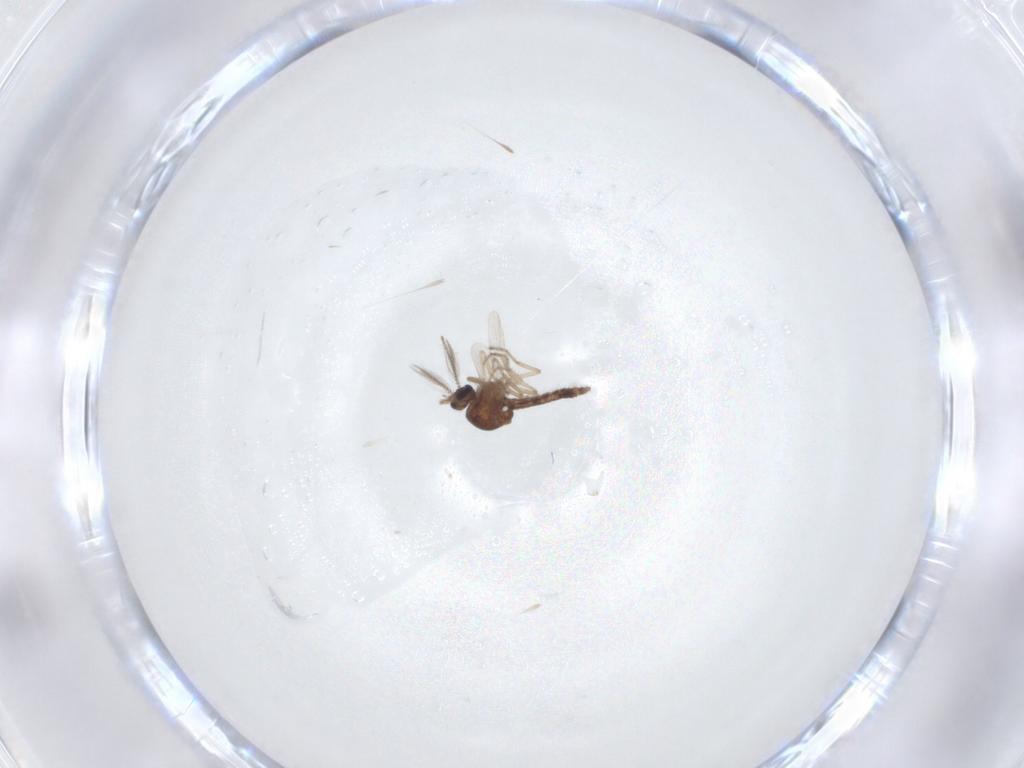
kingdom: Animalia
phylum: Arthropoda
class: Insecta
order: Diptera
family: Ceratopogonidae
